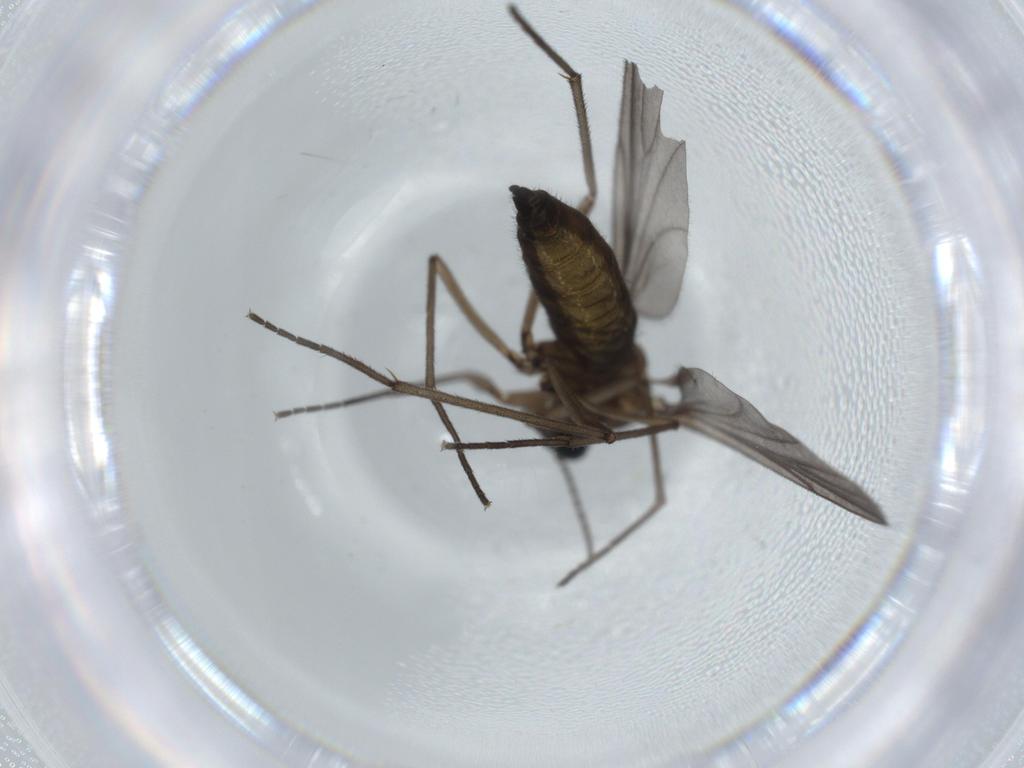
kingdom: Animalia
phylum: Arthropoda
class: Insecta
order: Diptera
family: Sciaridae
